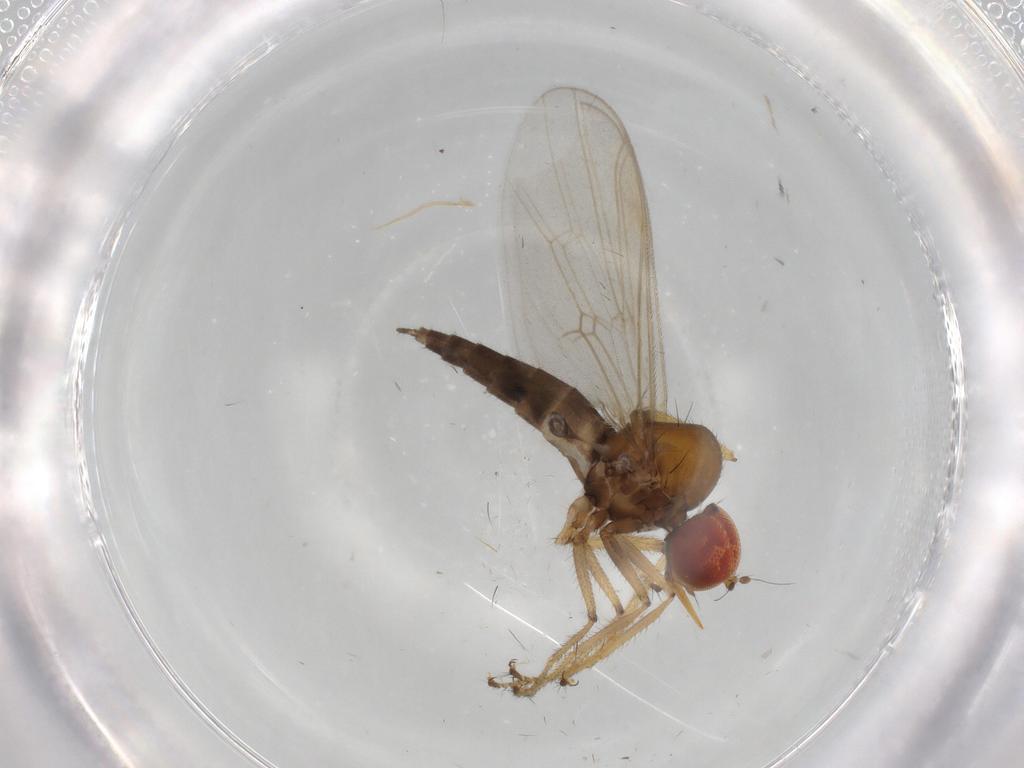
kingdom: Animalia
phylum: Arthropoda
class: Insecta
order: Diptera
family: Hybotidae
